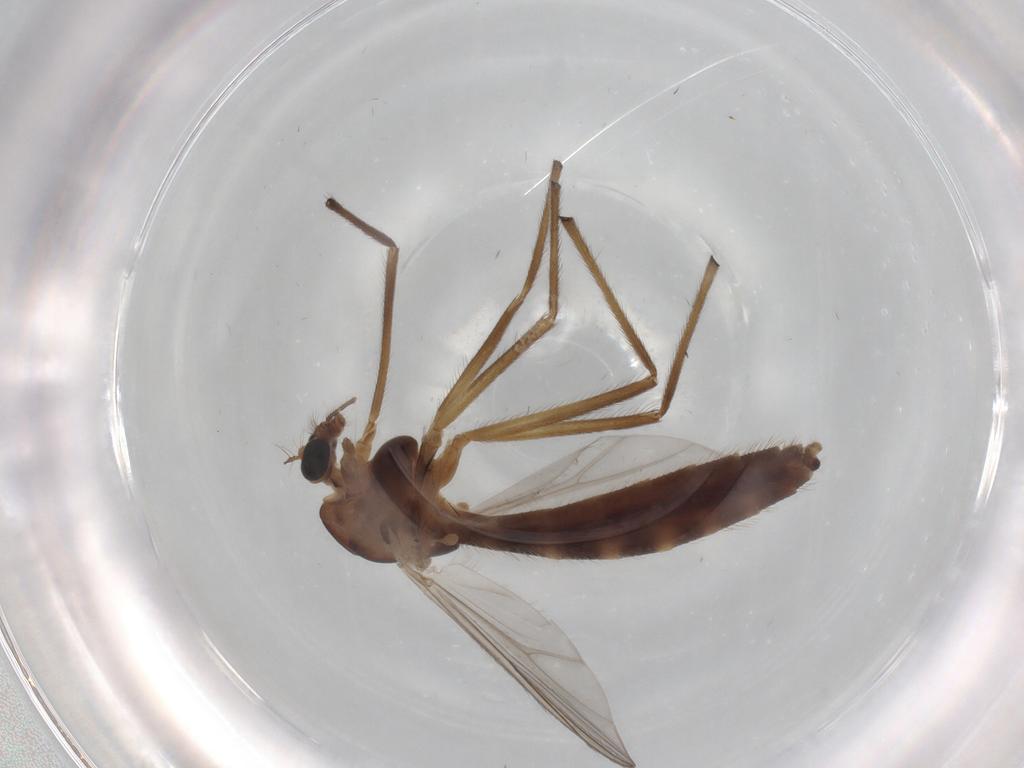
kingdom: Animalia
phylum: Arthropoda
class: Insecta
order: Diptera
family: Chironomidae
